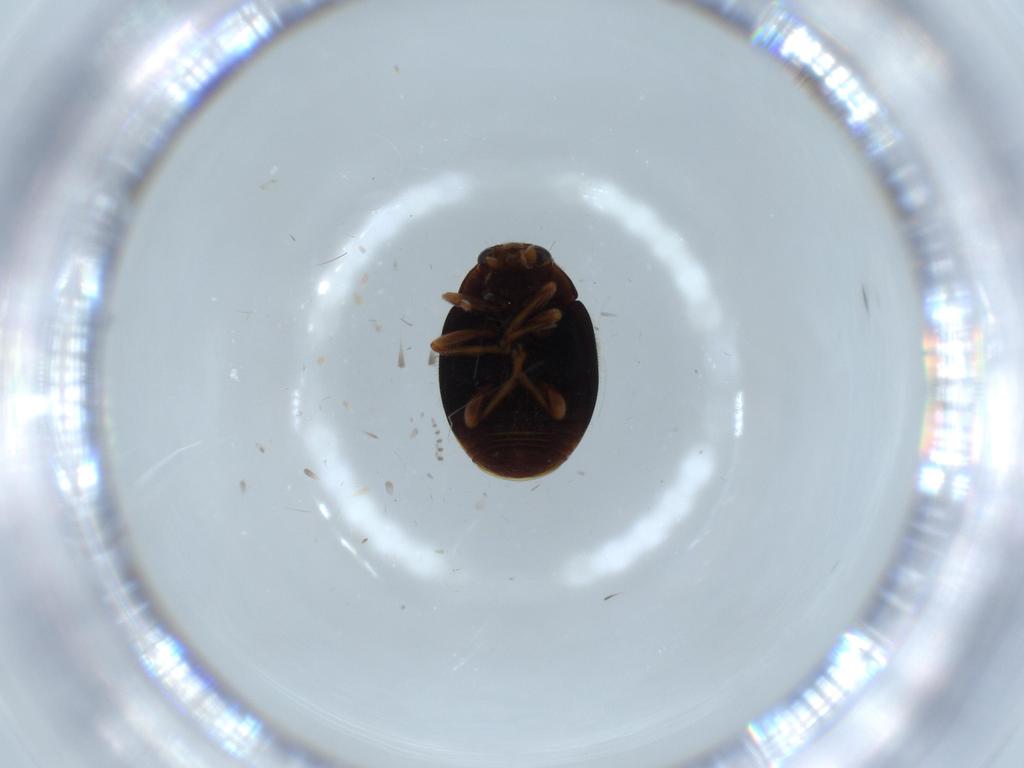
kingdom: Animalia
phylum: Arthropoda
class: Insecta
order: Coleoptera
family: Coccinellidae
